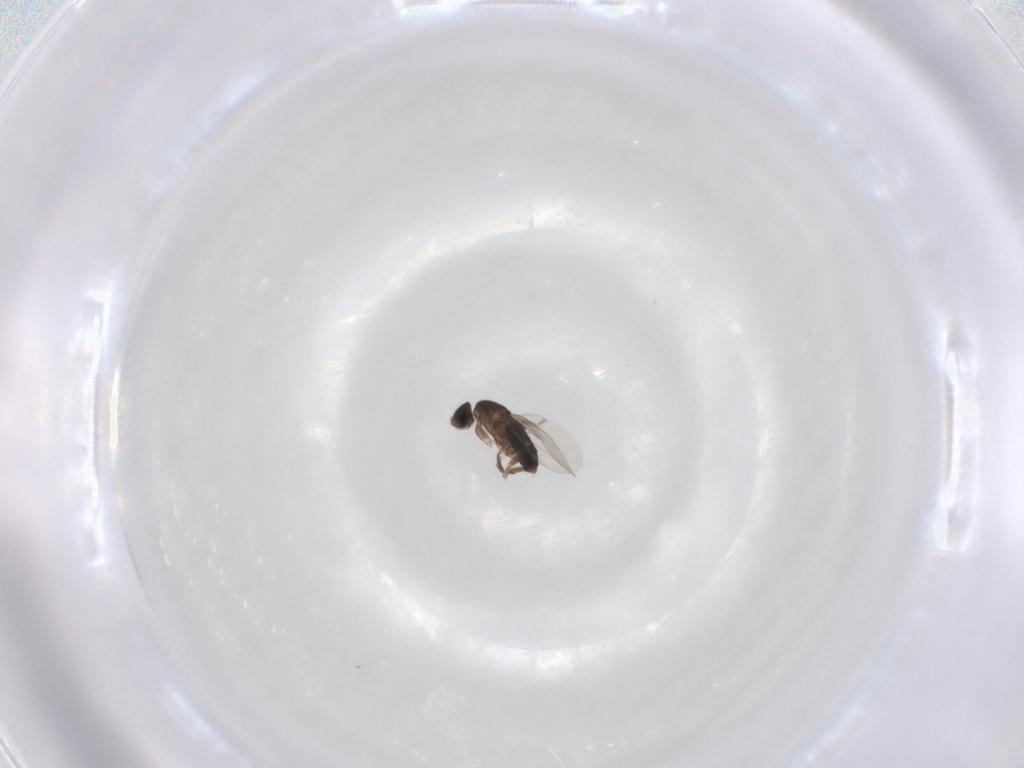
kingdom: Animalia
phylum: Arthropoda
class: Insecta
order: Diptera
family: Phoridae
